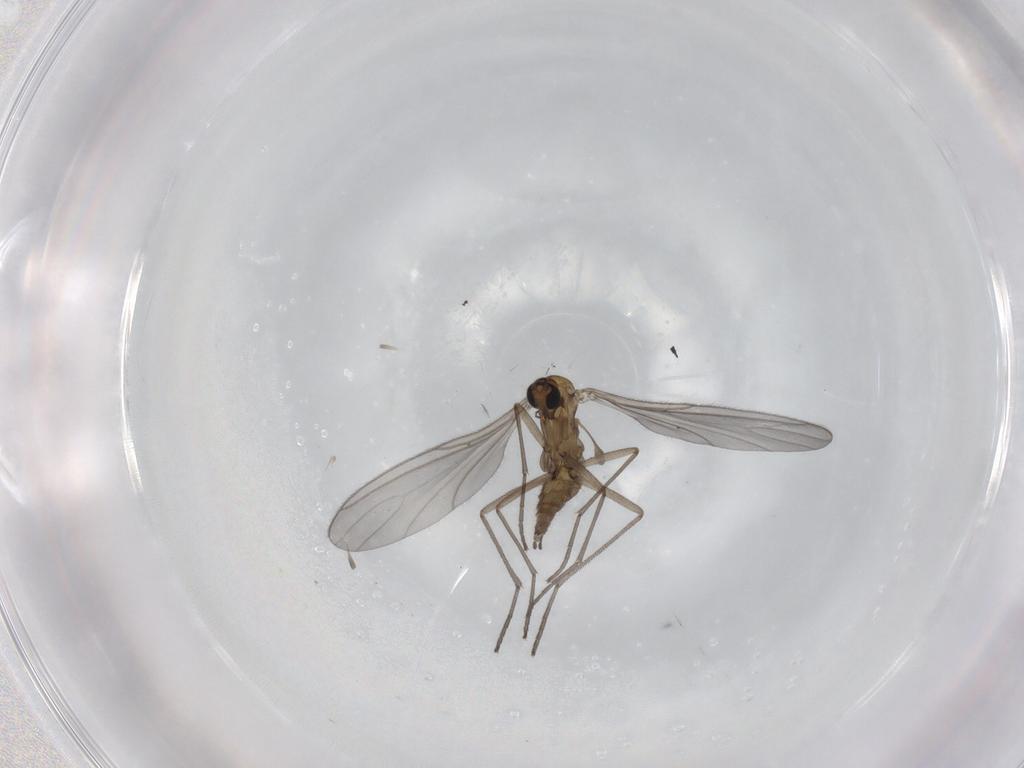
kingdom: Animalia
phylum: Arthropoda
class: Insecta
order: Diptera
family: Sciaridae
